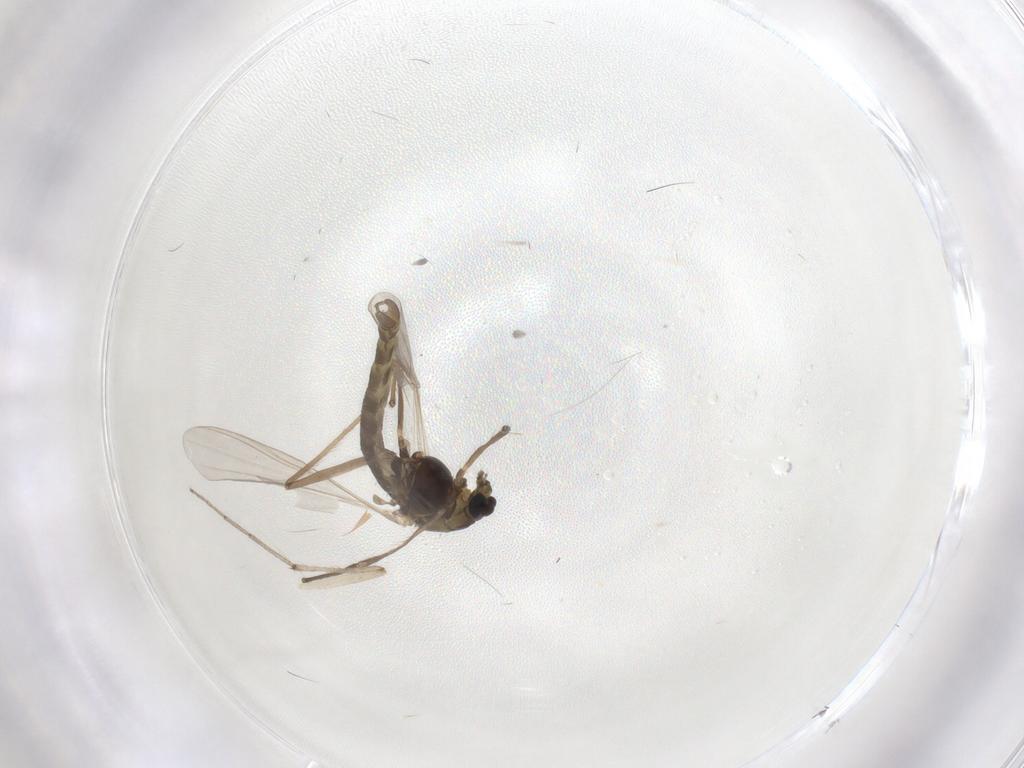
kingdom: Animalia
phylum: Arthropoda
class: Insecta
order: Diptera
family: Chironomidae
